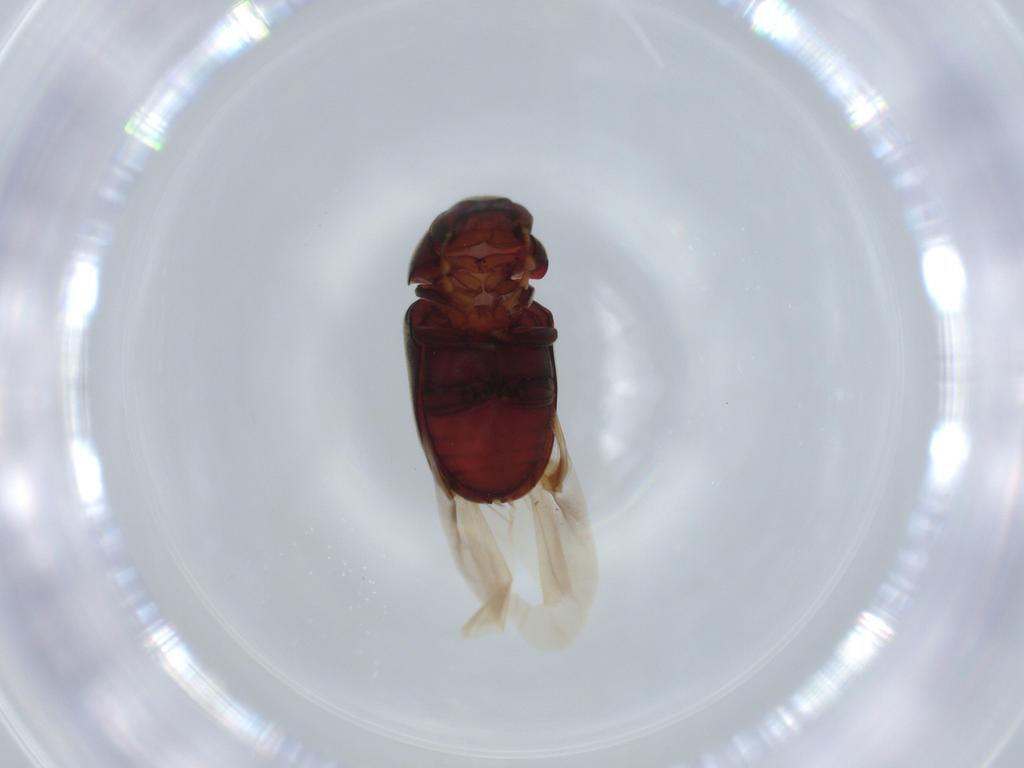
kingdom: Animalia
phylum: Arthropoda
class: Insecta
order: Coleoptera
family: Ptinidae
